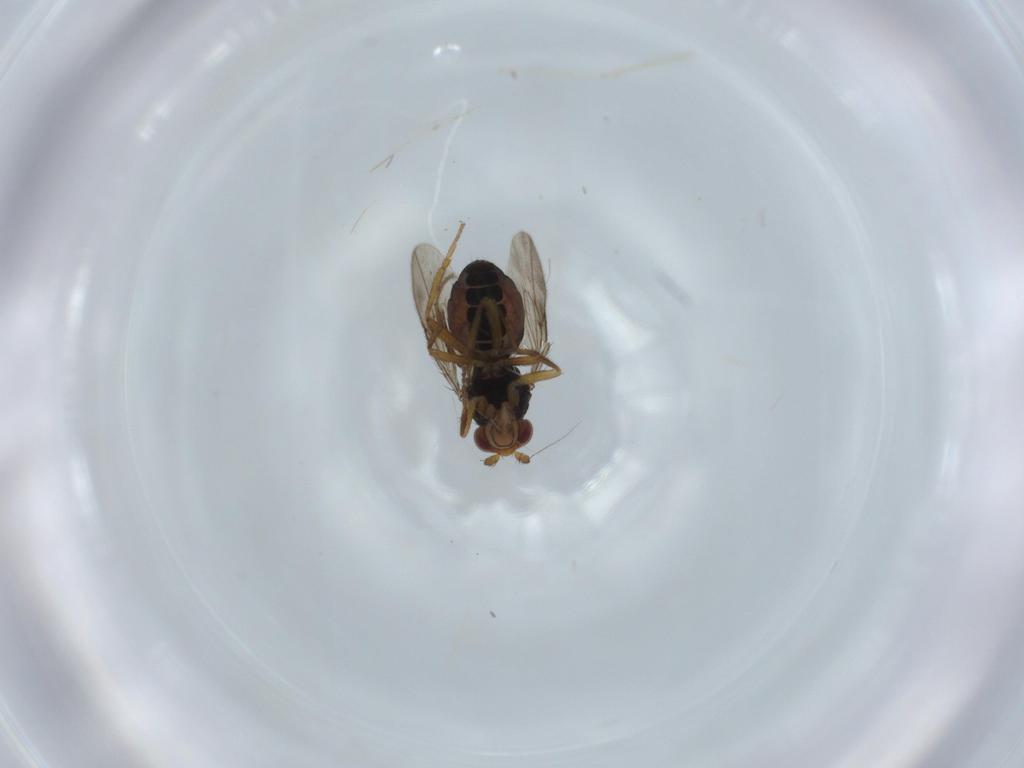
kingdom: Animalia
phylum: Arthropoda
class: Insecta
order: Diptera
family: Sphaeroceridae
